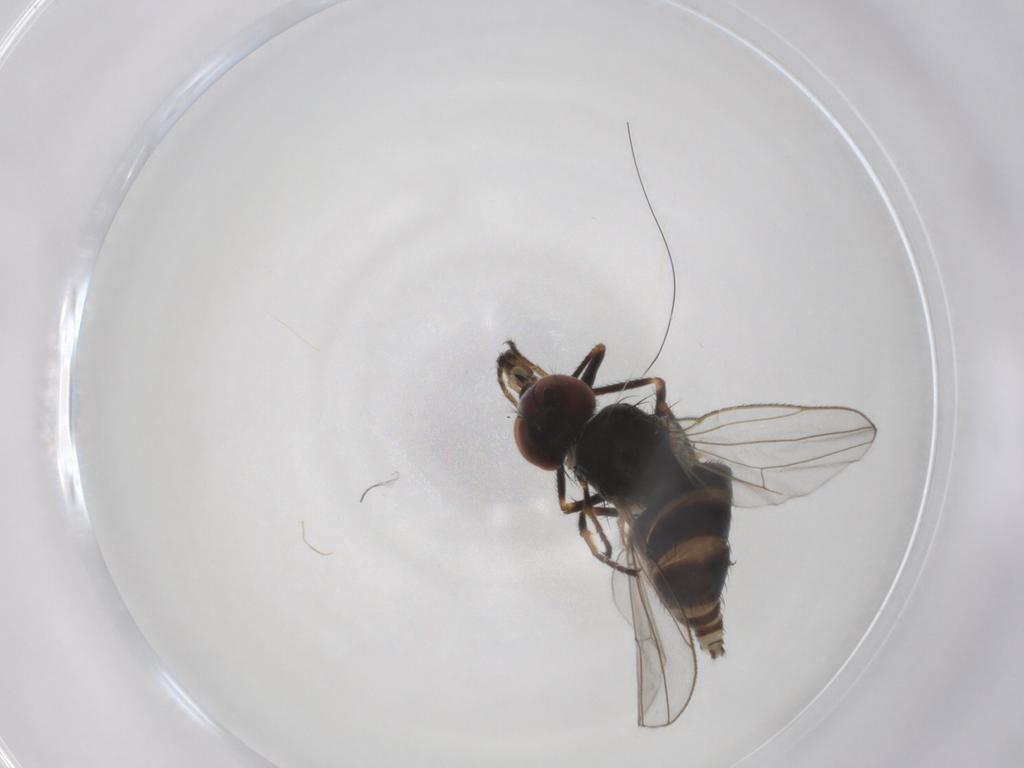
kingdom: Animalia
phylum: Arthropoda
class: Insecta
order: Diptera
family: Ephydridae
